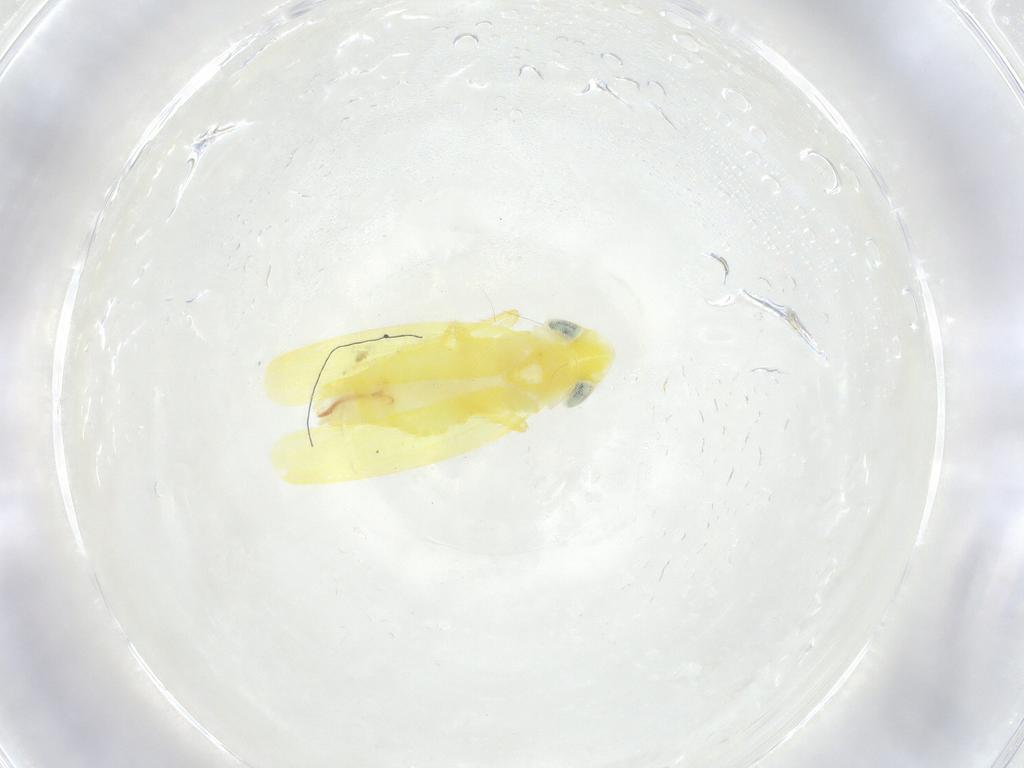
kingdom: Animalia
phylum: Arthropoda
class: Insecta
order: Hemiptera
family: Cicadellidae
